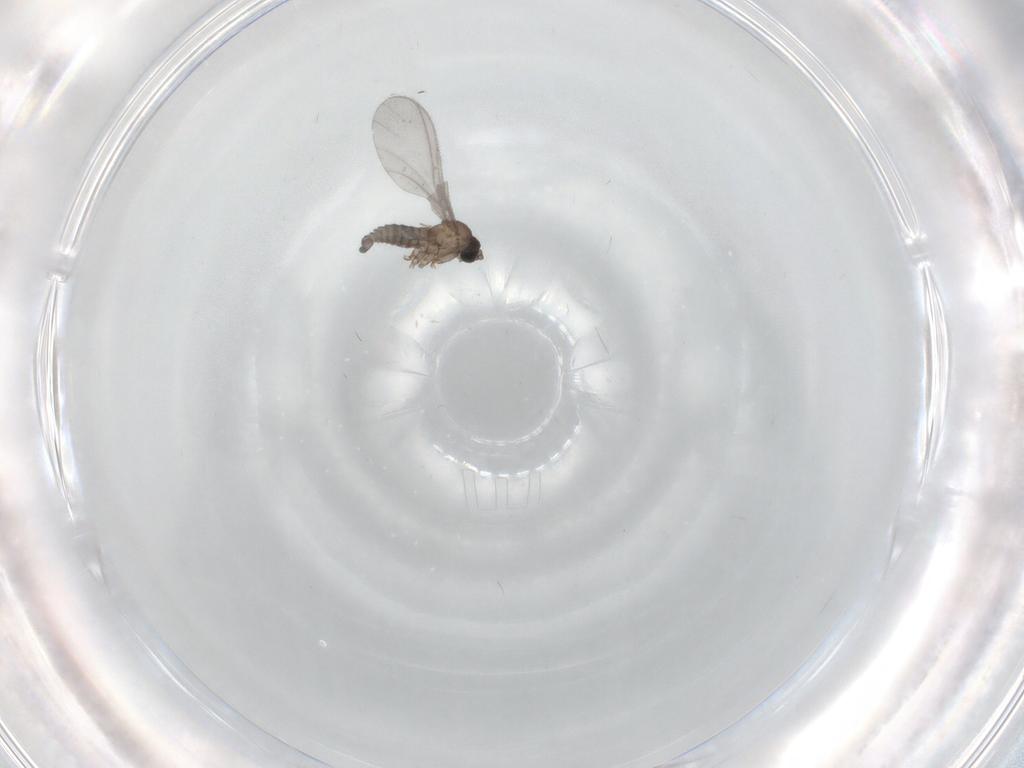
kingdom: Animalia
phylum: Arthropoda
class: Insecta
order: Diptera
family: Sciaridae
